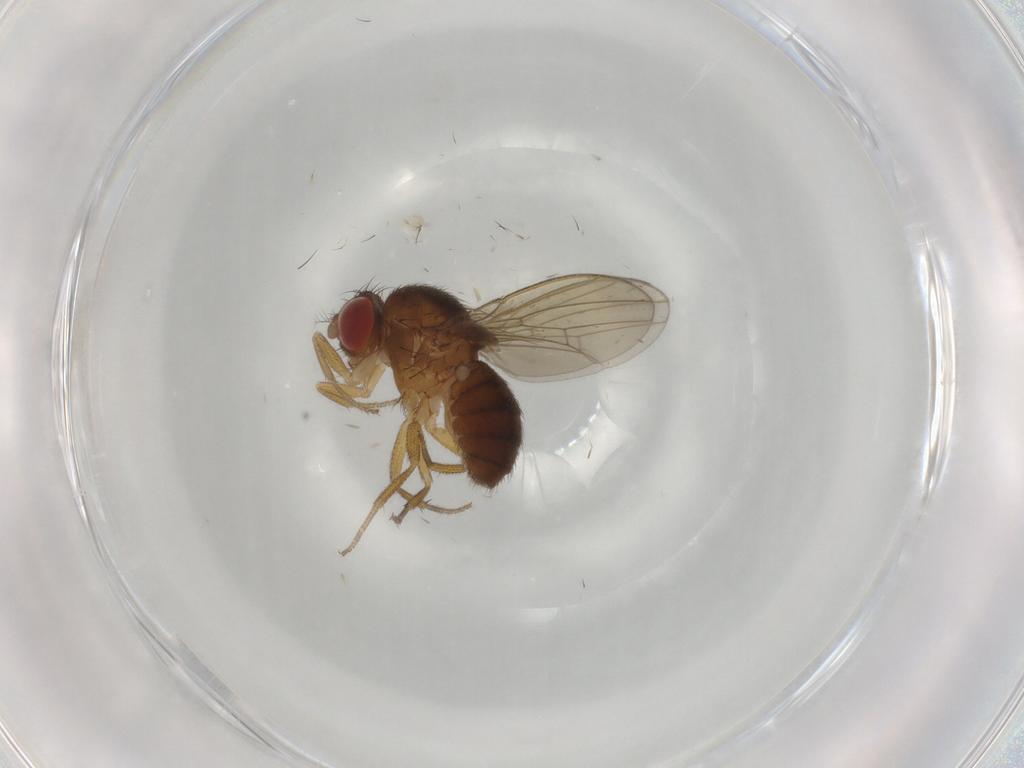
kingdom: Animalia
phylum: Arthropoda
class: Insecta
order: Diptera
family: Drosophilidae
